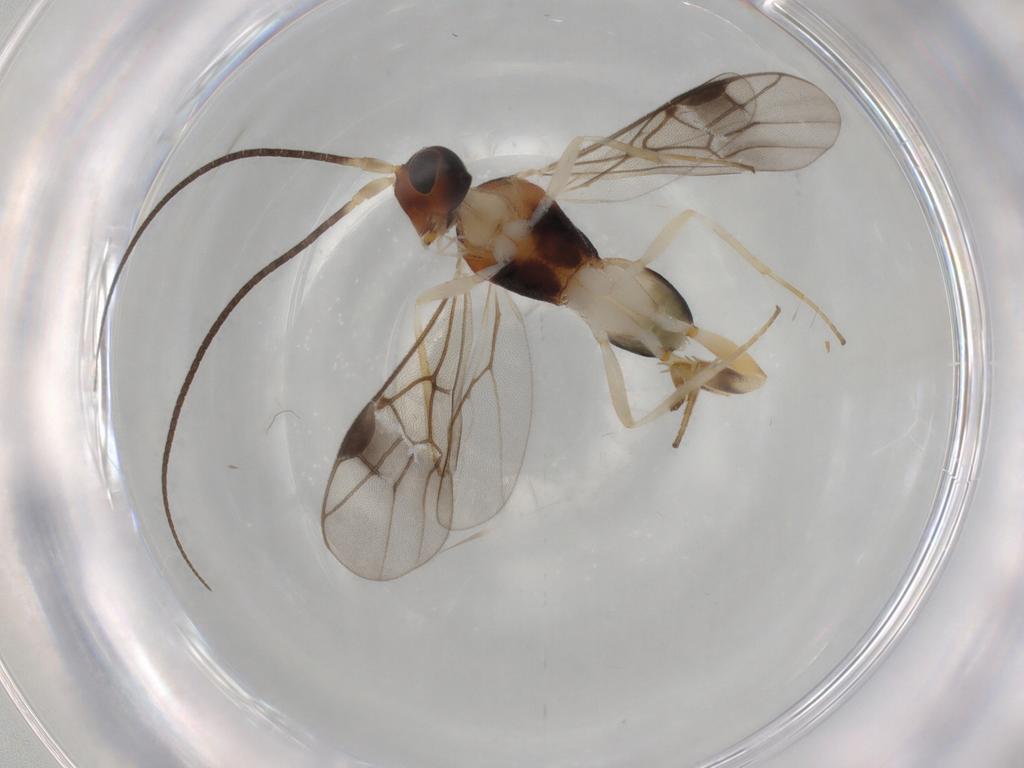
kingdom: Animalia
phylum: Arthropoda
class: Insecta
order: Hymenoptera
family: Braconidae
